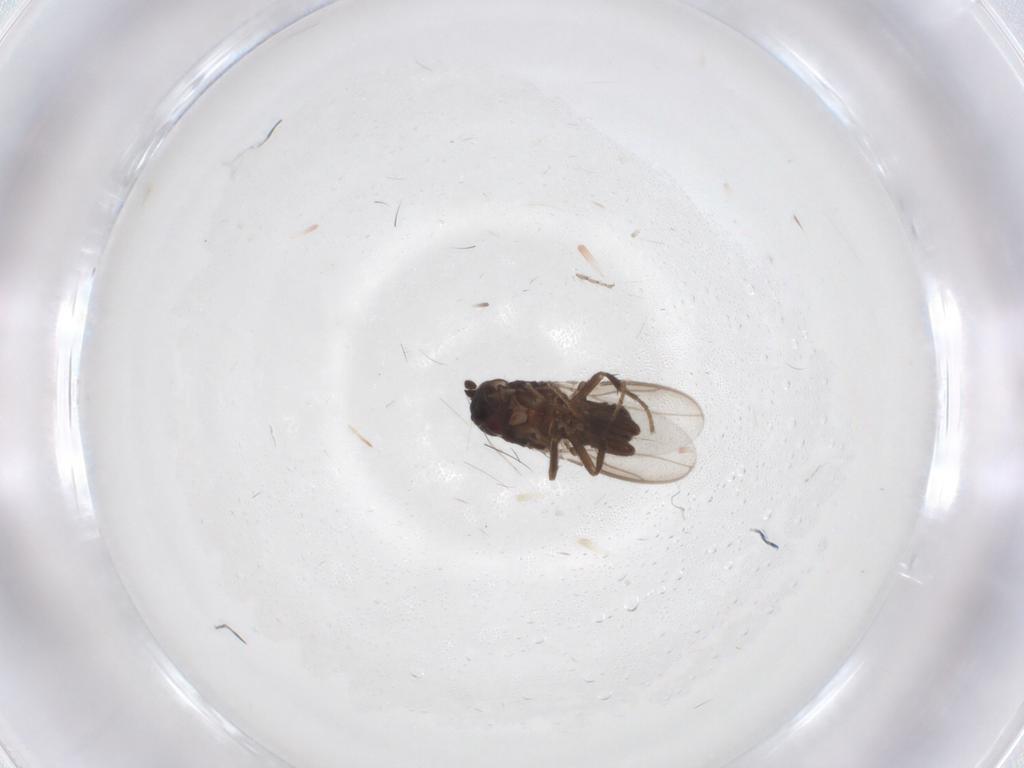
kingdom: Animalia
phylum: Arthropoda
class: Insecta
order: Diptera
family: Sphaeroceridae
